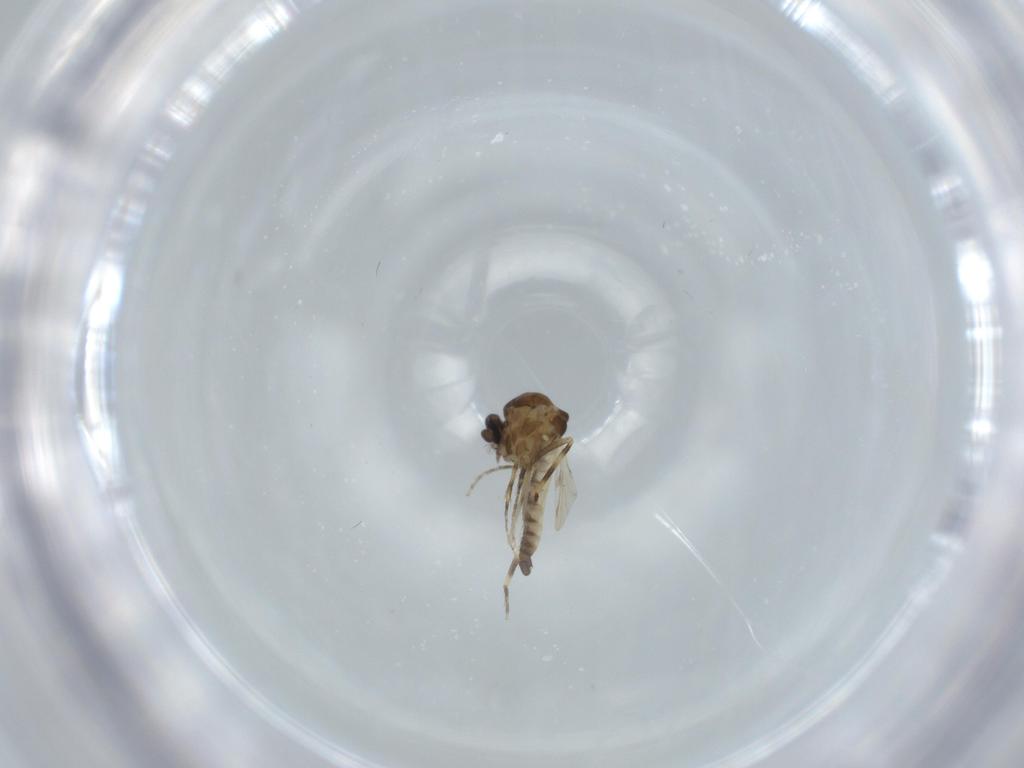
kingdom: Animalia
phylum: Arthropoda
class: Insecta
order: Diptera
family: Ceratopogonidae
